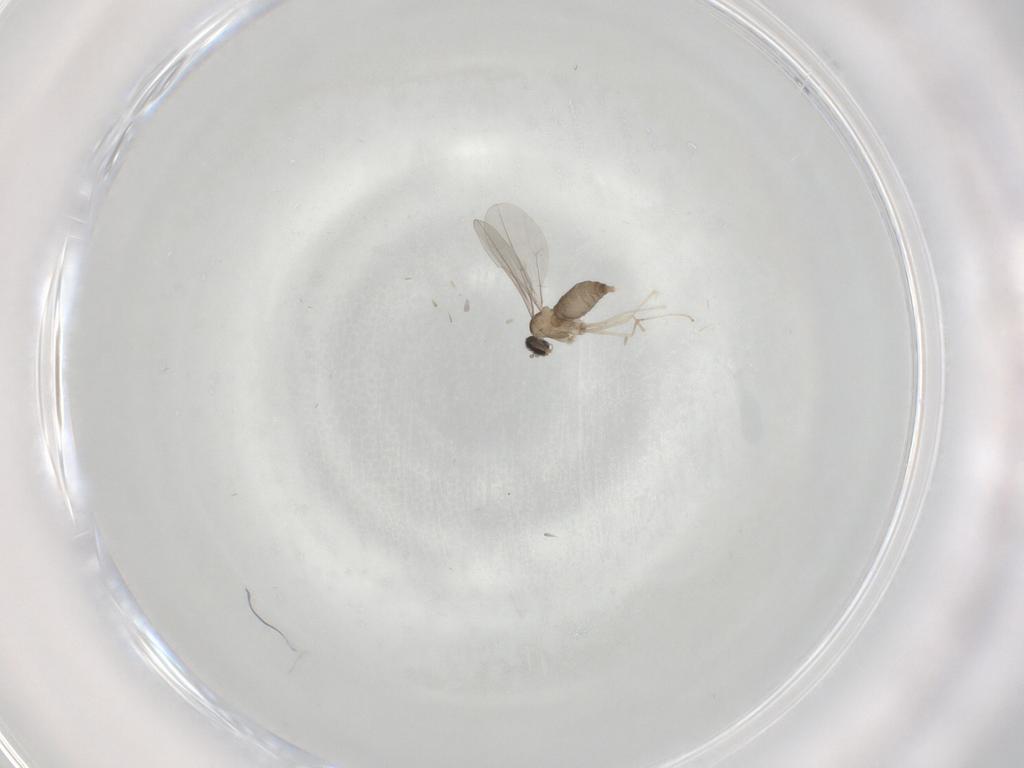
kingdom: Animalia
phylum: Arthropoda
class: Insecta
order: Diptera
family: Cecidomyiidae
